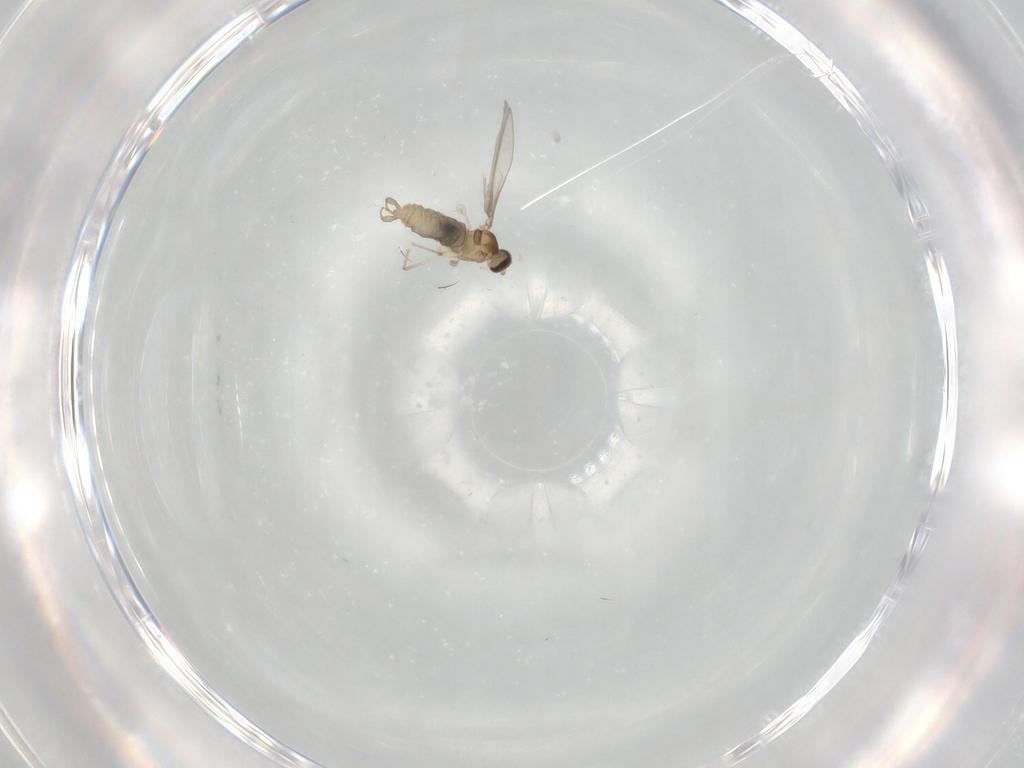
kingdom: Animalia
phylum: Arthropoda
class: Insecta
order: Diptera
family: Cecidomyiidae
